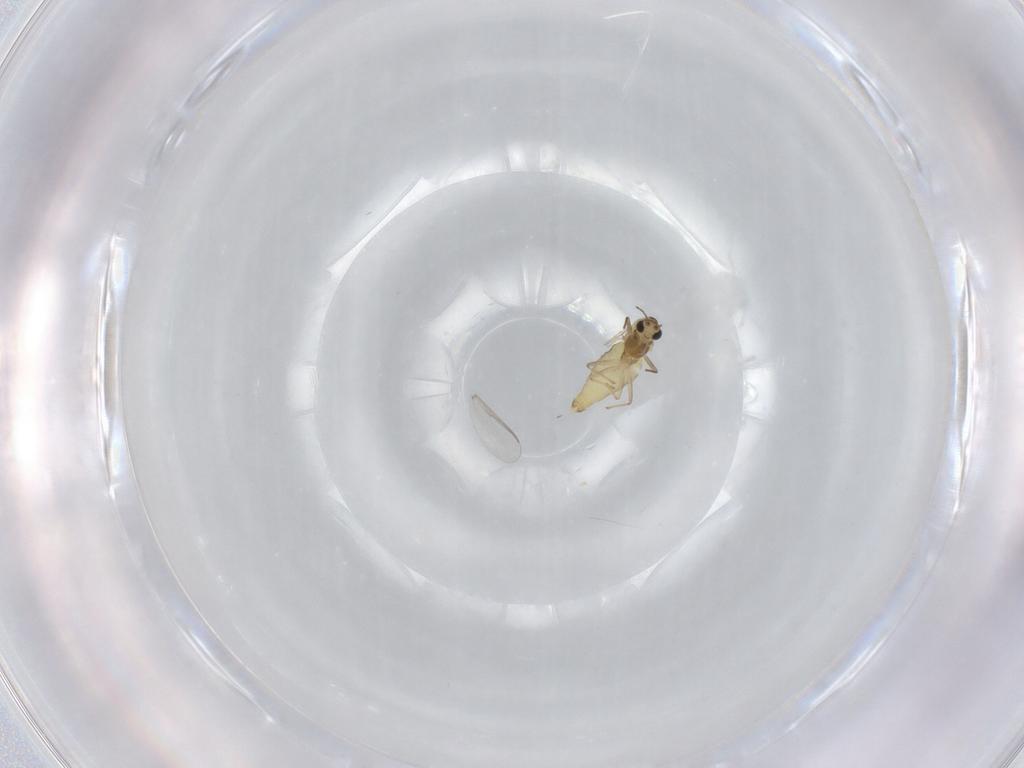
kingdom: Animalia
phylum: Arthropoda
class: Insecta
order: Diptera
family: Chironomidae
